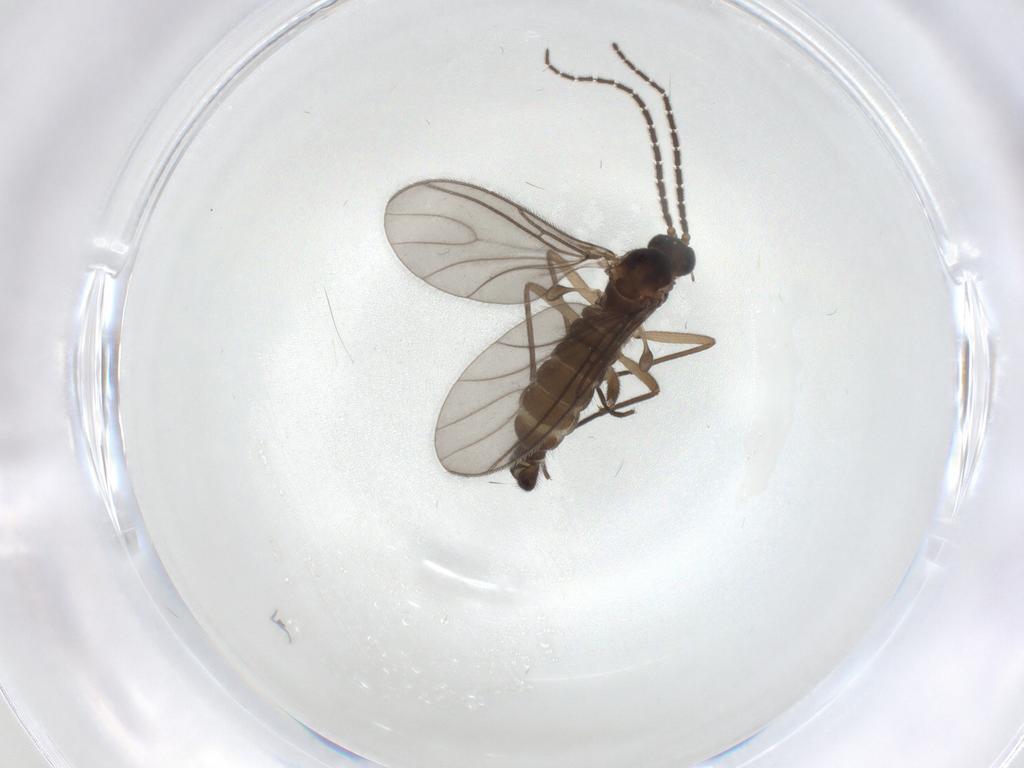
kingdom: Animalia
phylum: Arthropoda
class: Insecta
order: Diptera
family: Sciaridae
